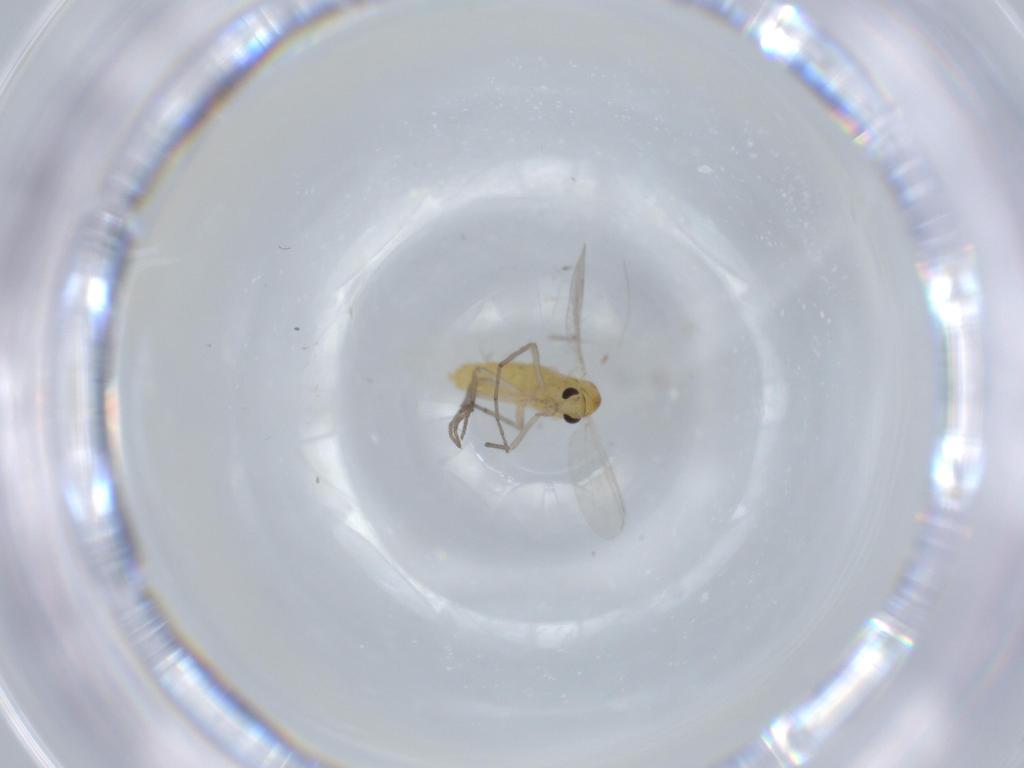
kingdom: Animalia
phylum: Arthropoda
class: Insecta
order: Diptera
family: Chironomidae
